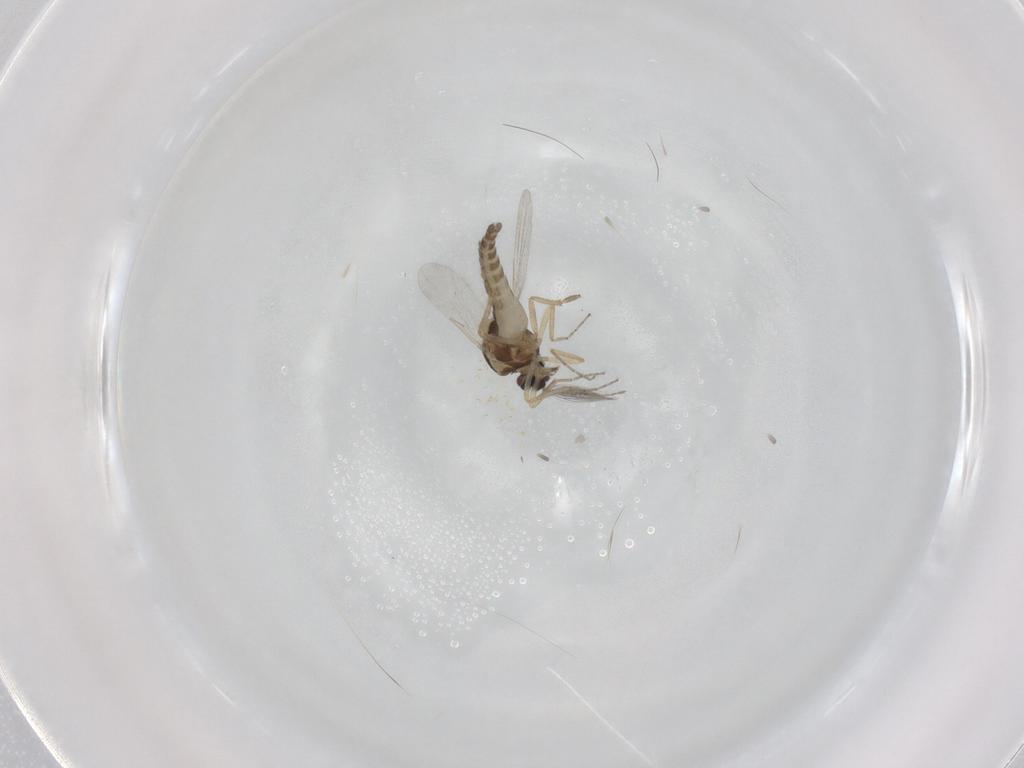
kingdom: Animalia
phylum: Arthropoda
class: Insecta
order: Diptera
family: Ceratopogonidae
